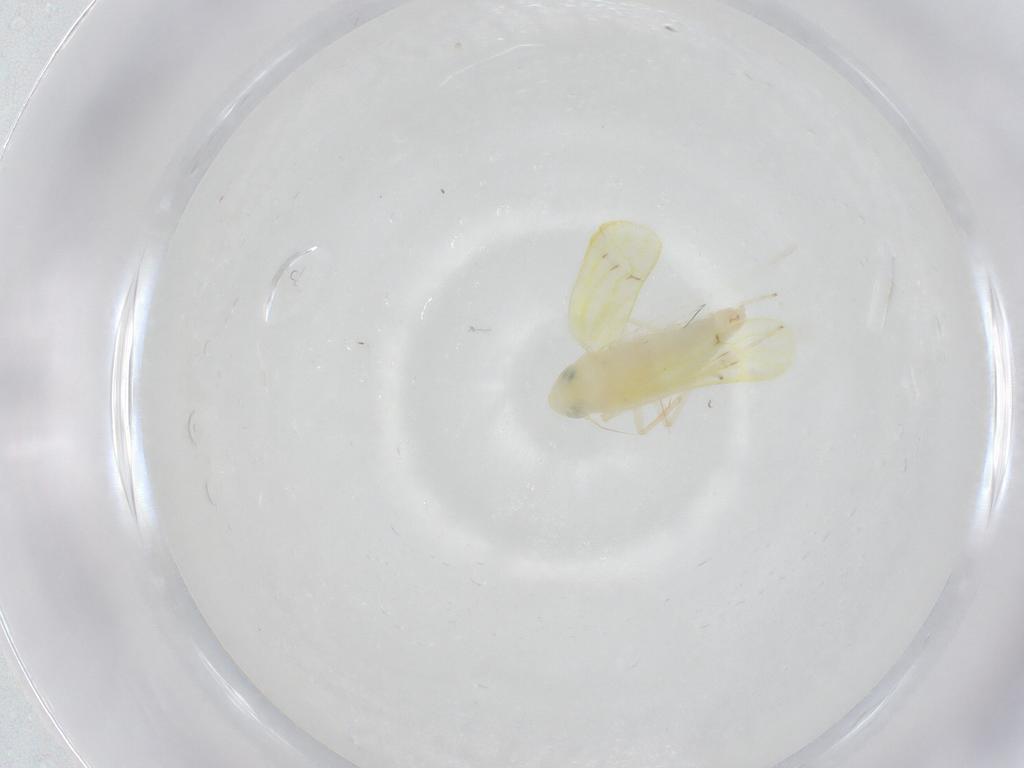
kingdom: Animalia
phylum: Arthropoda
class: Insecta
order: Hemiptera
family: Cicadellidae
